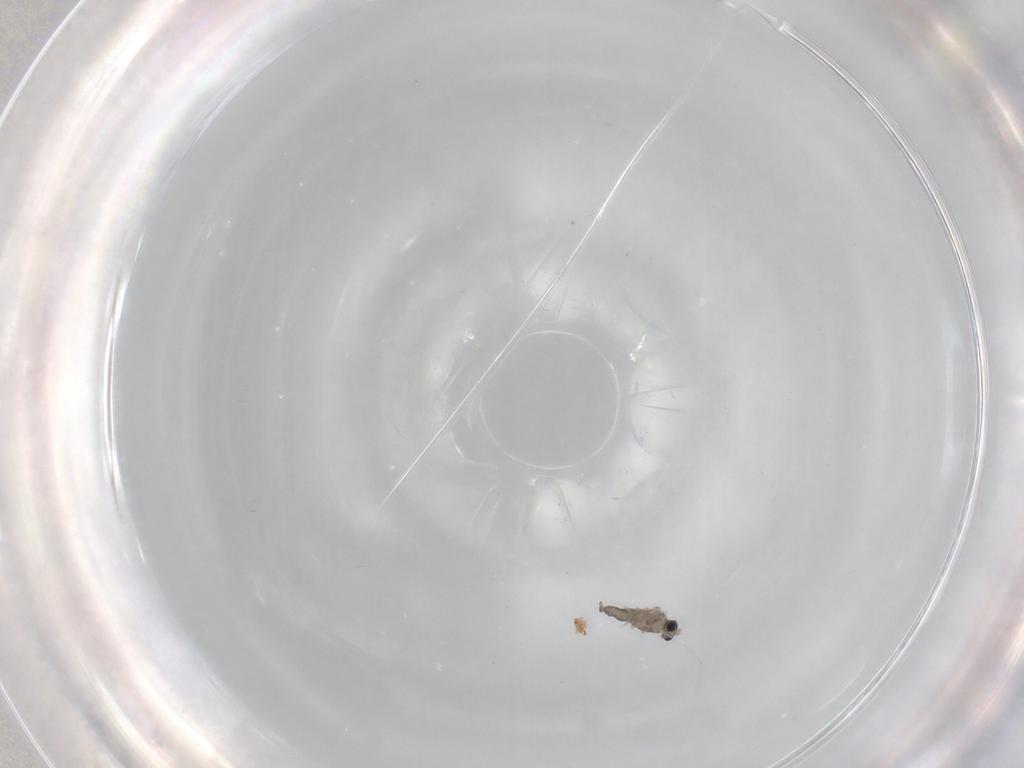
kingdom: Animalia
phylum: Arthropoda
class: Insecta
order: Diptera
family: Cecidomyiidae
